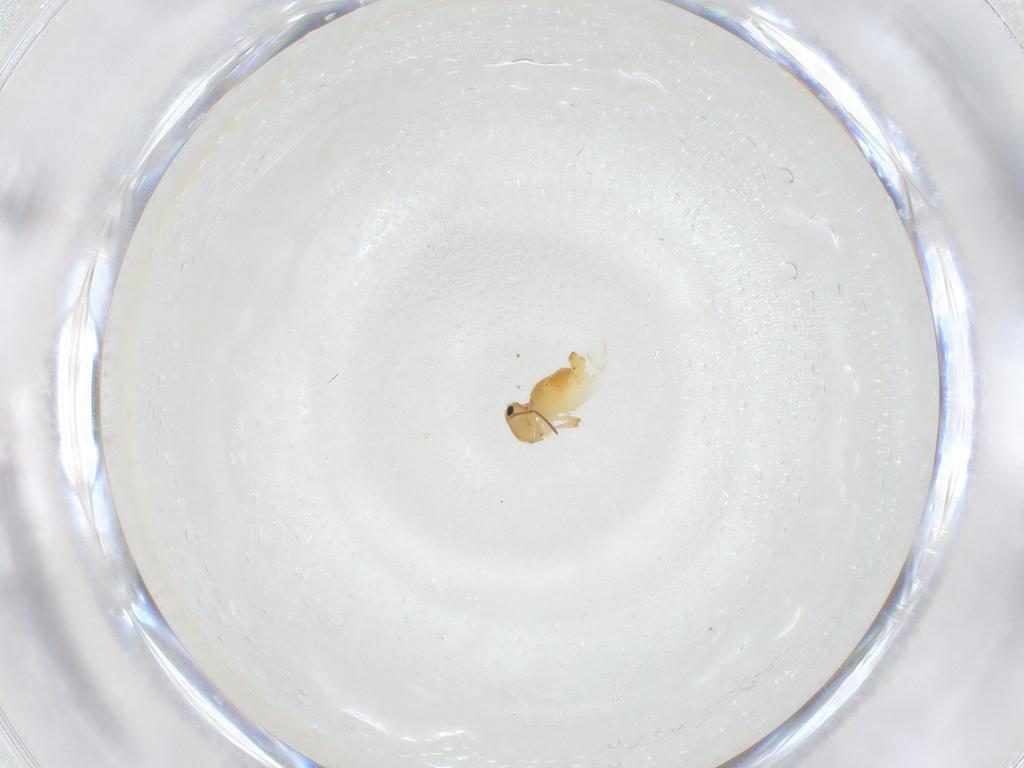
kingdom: Animalia
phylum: Arthropoda
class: Collembola
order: Symphypleona
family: Bourletiellidae
